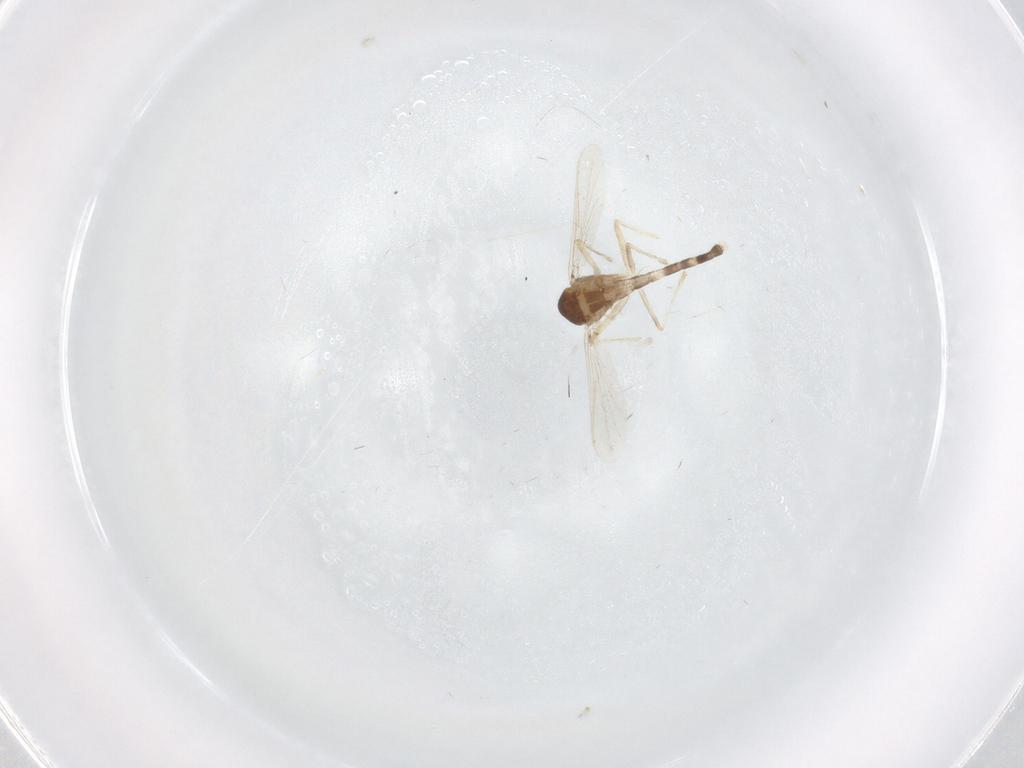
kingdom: Animalia
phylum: Arthropoda
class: Insecta
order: Diptera
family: Chironomidae
